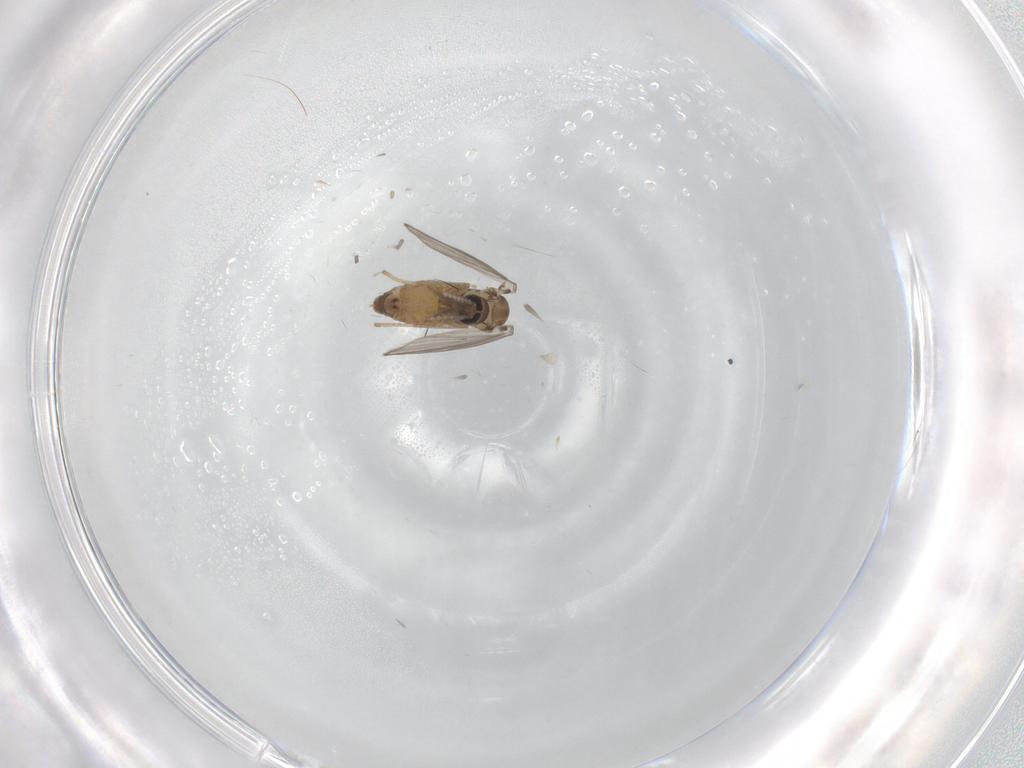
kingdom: Animalia
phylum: Arthropoda
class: Insecta
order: Diptera
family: Psychodidae
